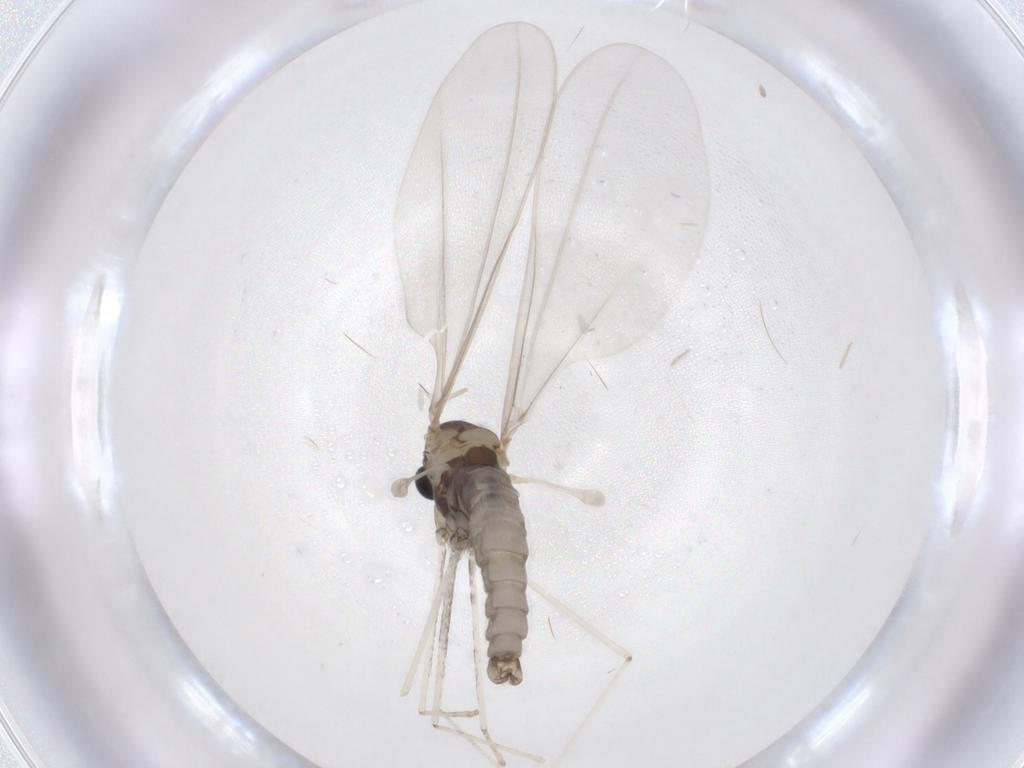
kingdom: Animalia
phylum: Arthropoda
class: Insecta
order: Diptera
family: Cecidomyiidae
